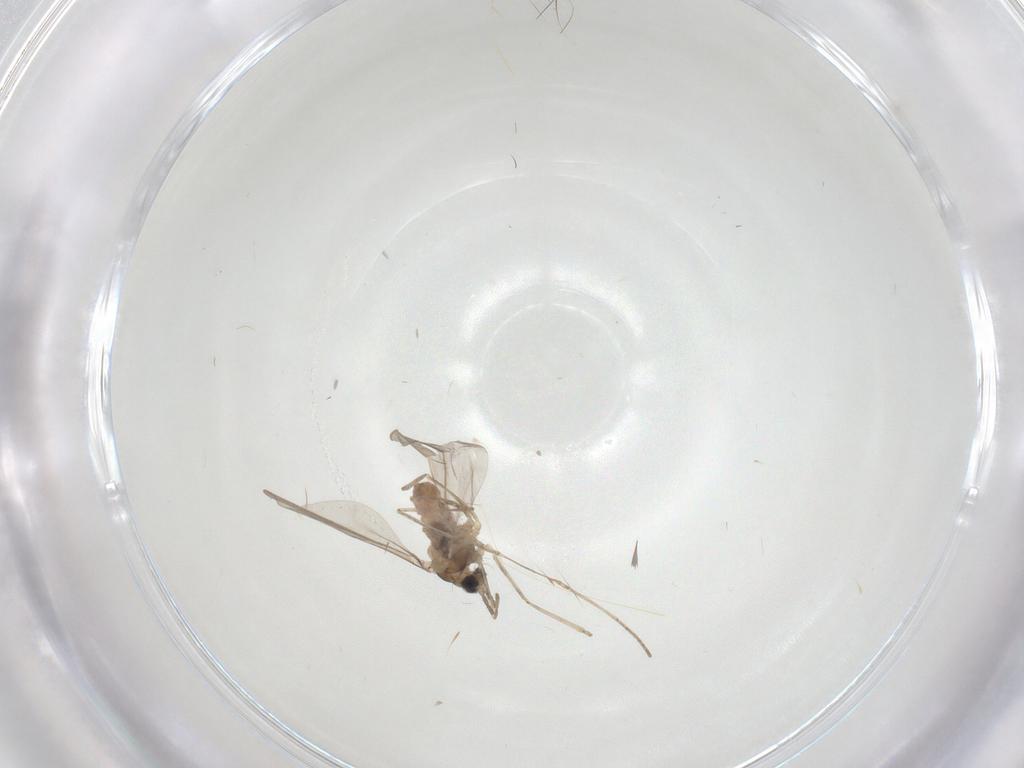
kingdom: Animalia
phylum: Arthropoda
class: Insecta
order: Diptera
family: Cecidomyiidae
